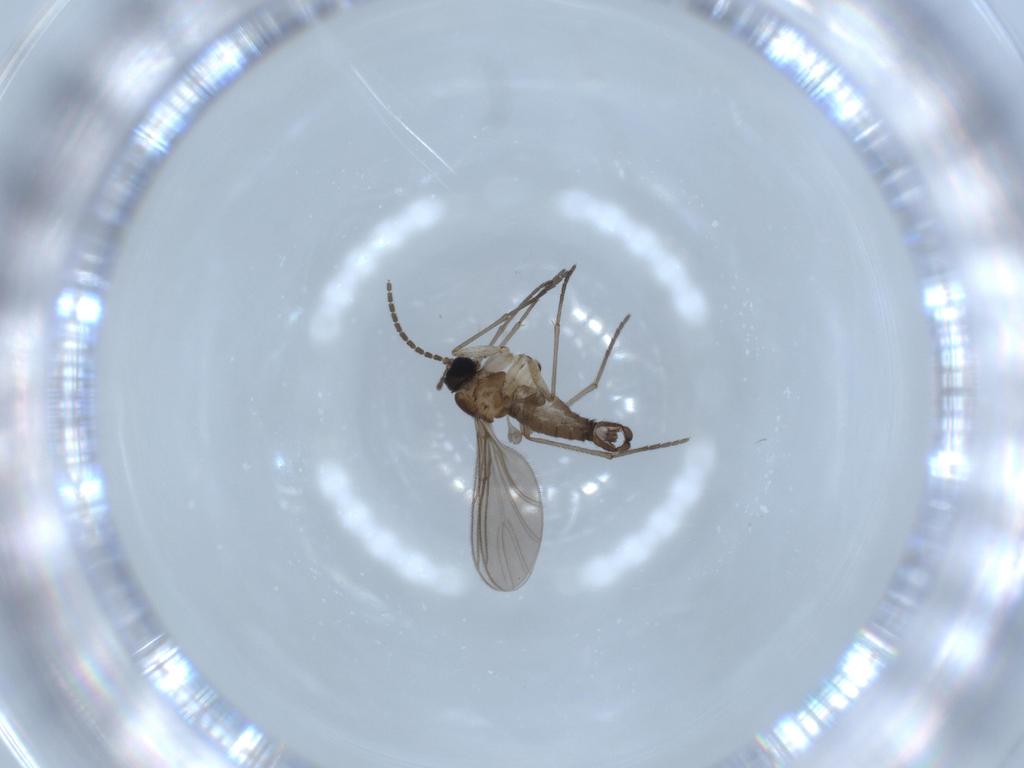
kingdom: Animalia
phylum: Arthropoda
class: Insecta
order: Diptera
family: Sciaridae
